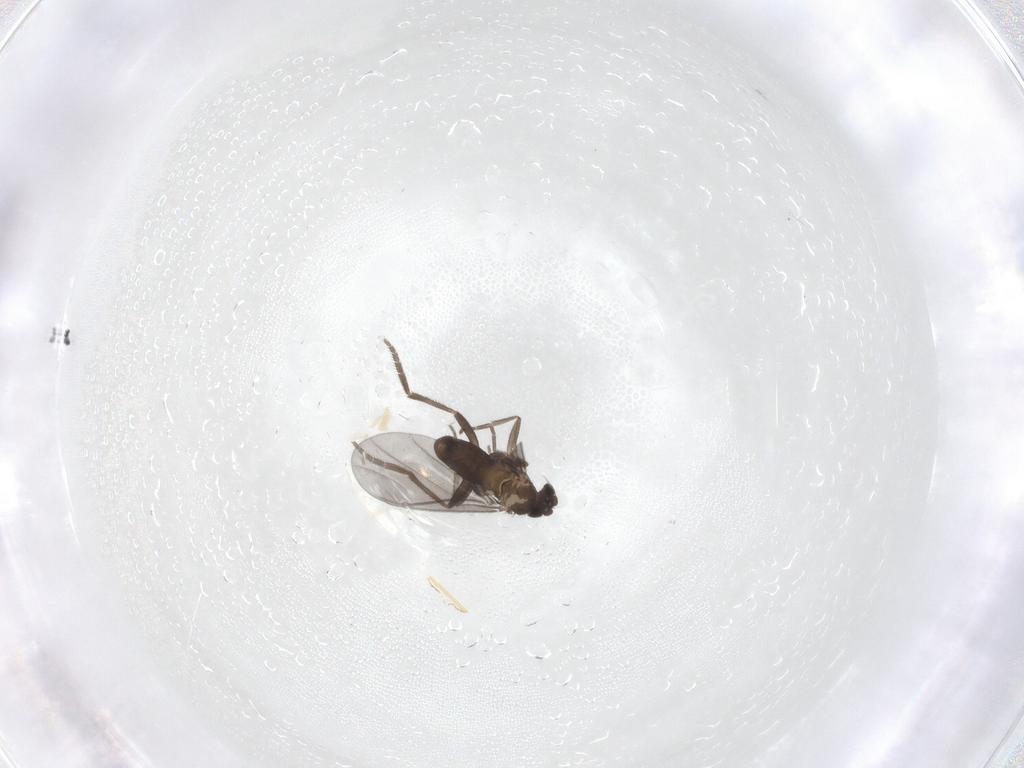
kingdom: Animalia
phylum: Arthropoda
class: Insecta
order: Diptera
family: Phoridae
